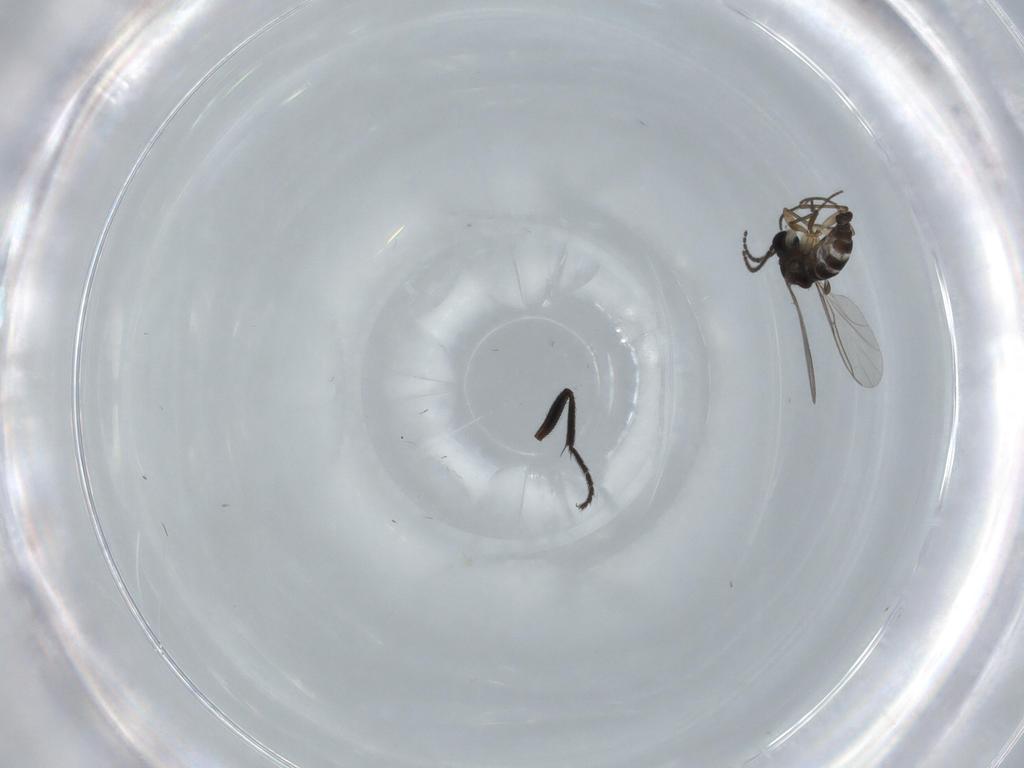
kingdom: Animalia
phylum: Arthropoda
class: Insecta
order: Diptera
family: Sciaridae
